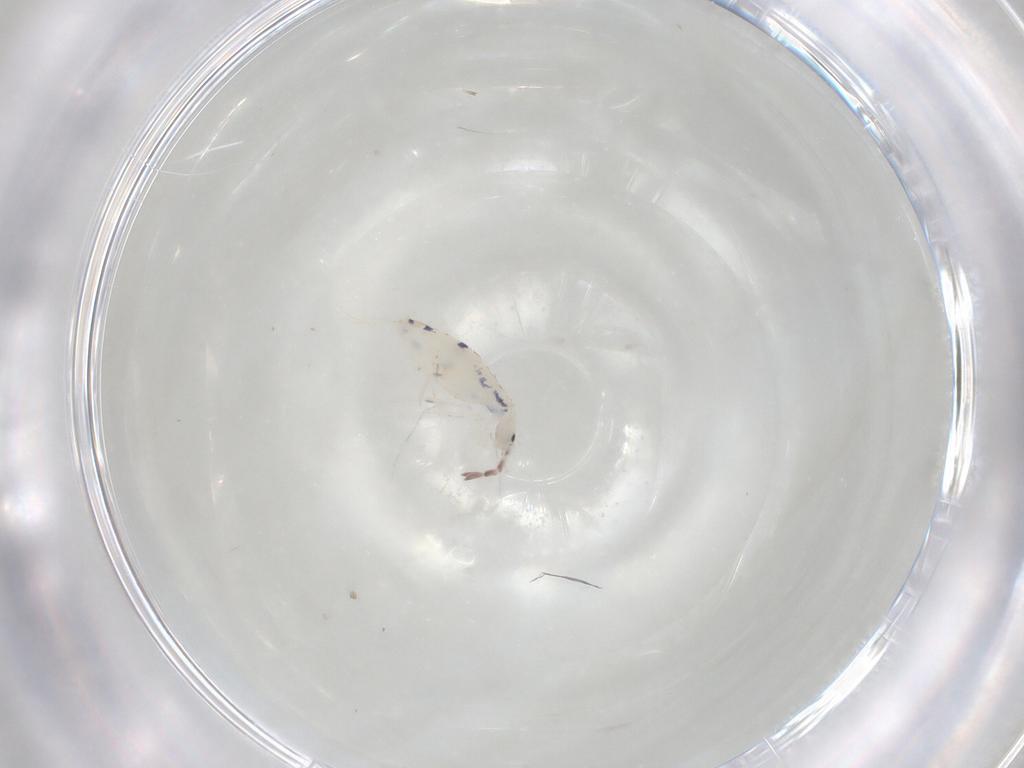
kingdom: Animalia
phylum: Arthropoda
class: Collembola
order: Entomobryomorpha
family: Entomobryidae
